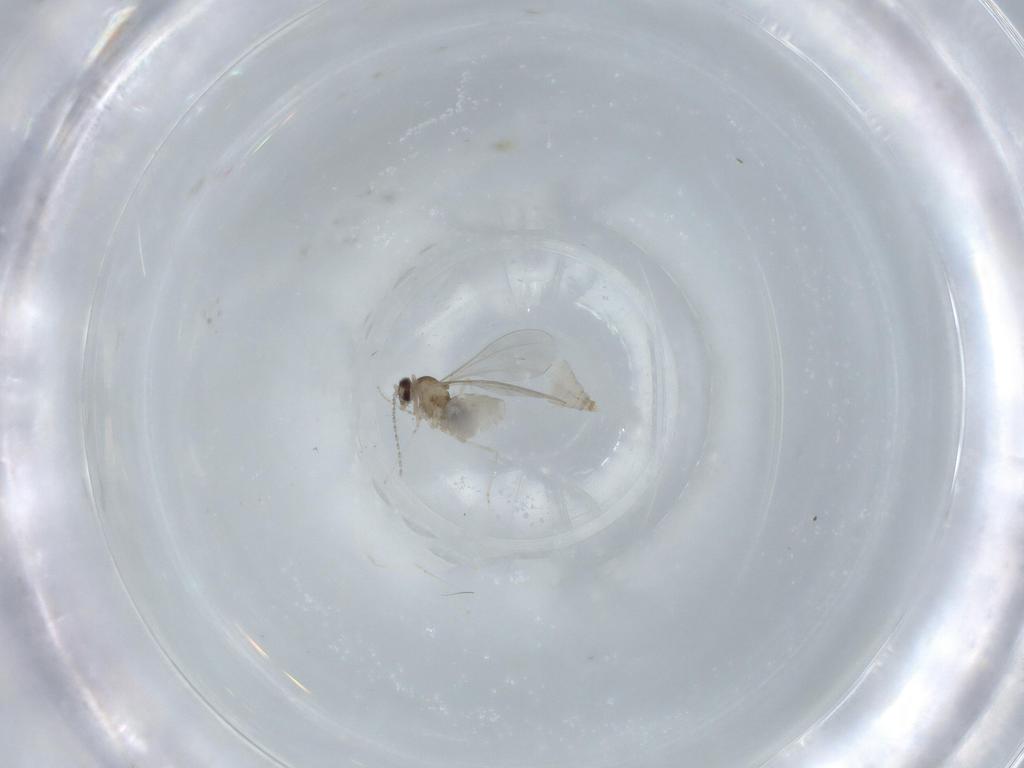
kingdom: Animalia
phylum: Arthropoda
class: Insecta
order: Diptera
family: Cecidomyiidae
